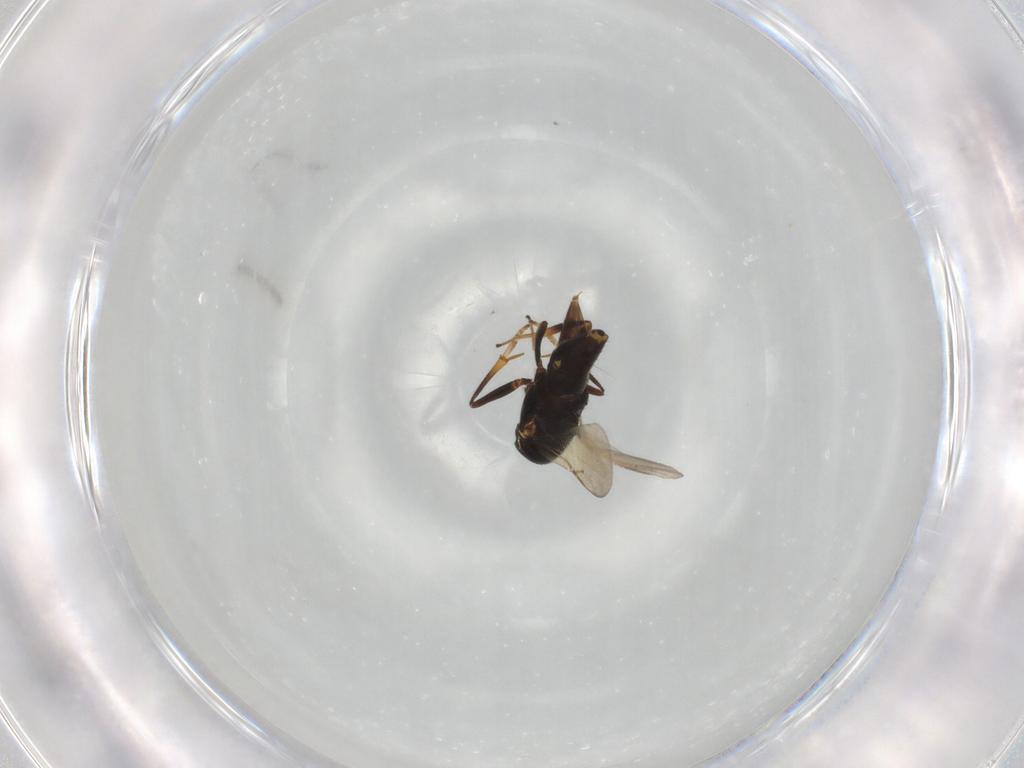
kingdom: Animalia
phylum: Arthropoda
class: Insecta
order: Hymenoptera
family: Encyrtidae
